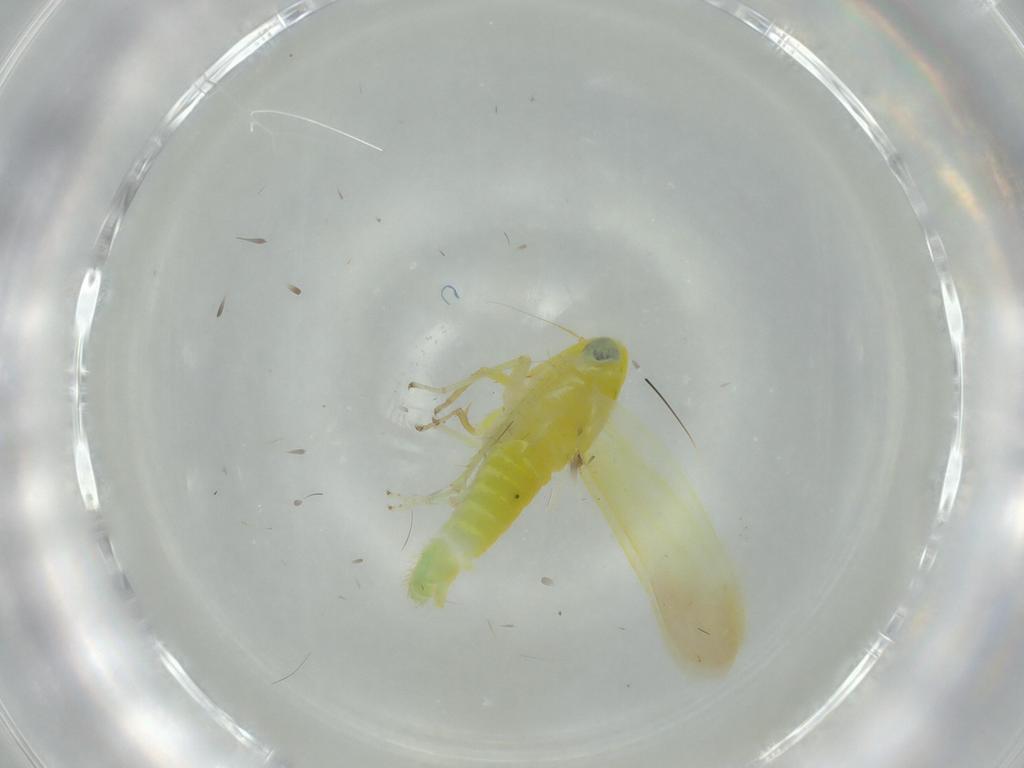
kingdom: Animalia
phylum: Arthropoda
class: Insecta
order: Hemiptera
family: Cicadellidae
